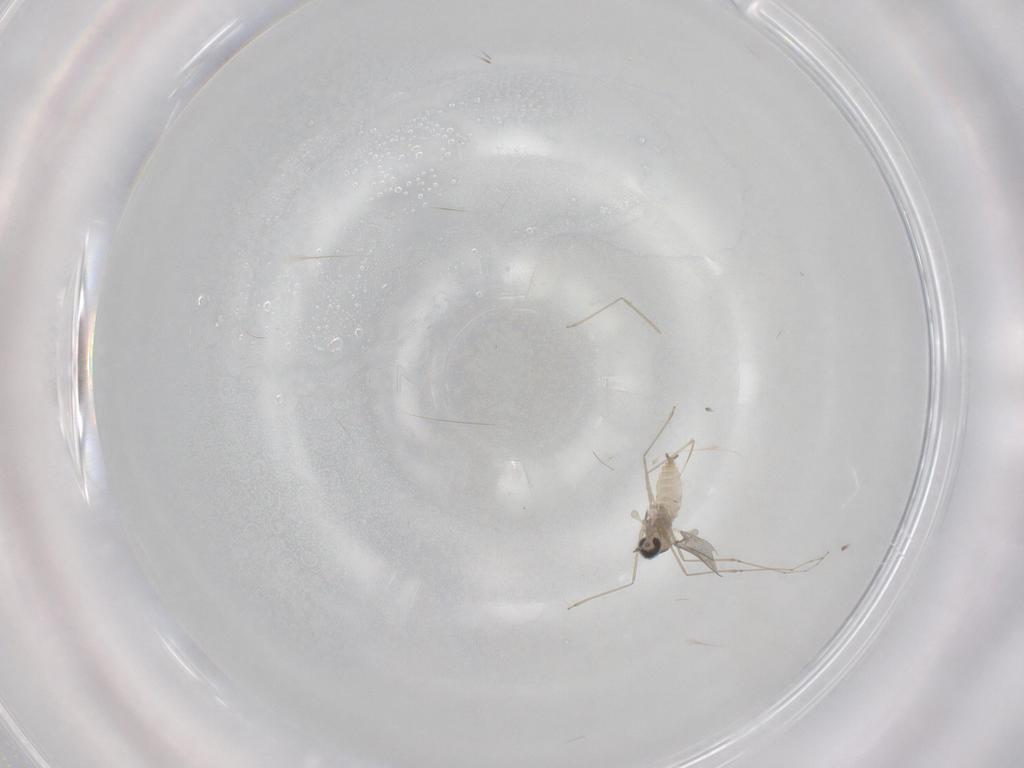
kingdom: Animalia
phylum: Arthropoda
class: Insecta
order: Diptera
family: Cecidomyiidae
